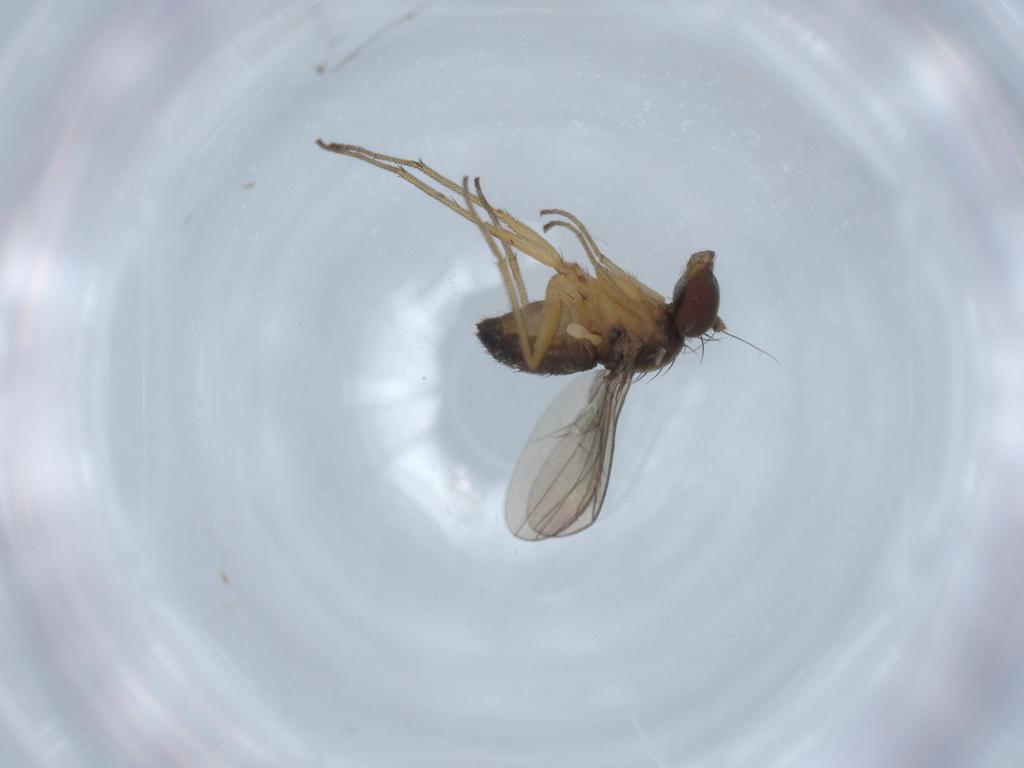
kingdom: Animalia
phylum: Arthropoda
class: Insecta
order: Diptera
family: Dolichopodidae
